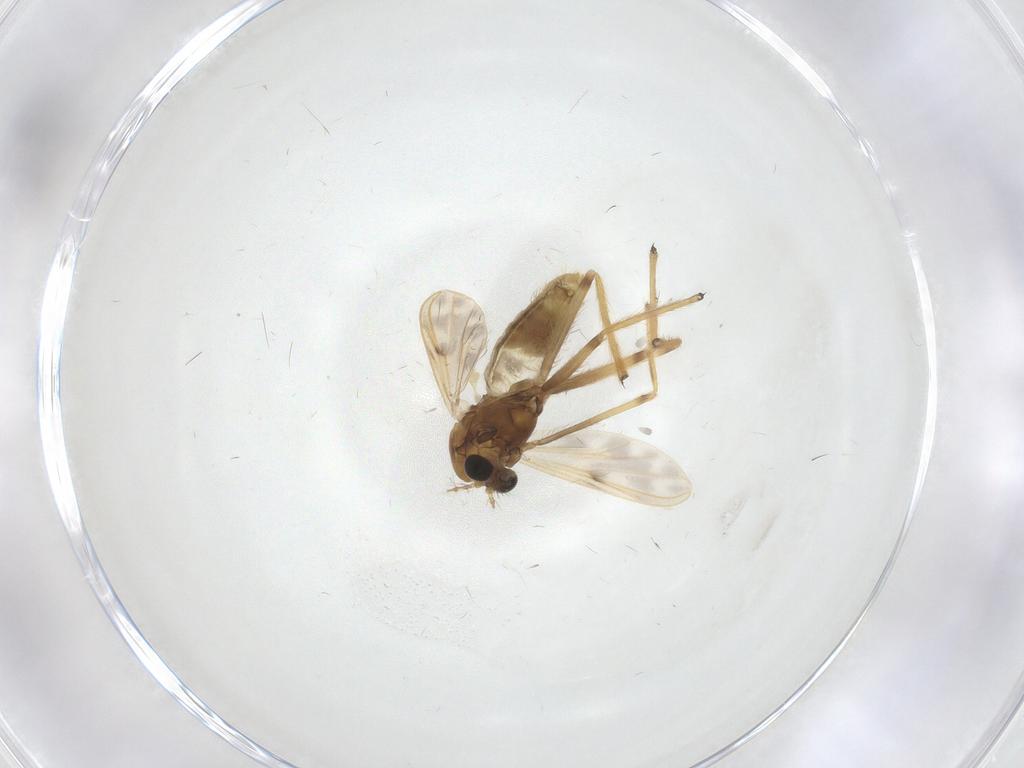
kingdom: Animalia
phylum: Arthropoda
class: Insecta
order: Diptera
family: Chironomidae
